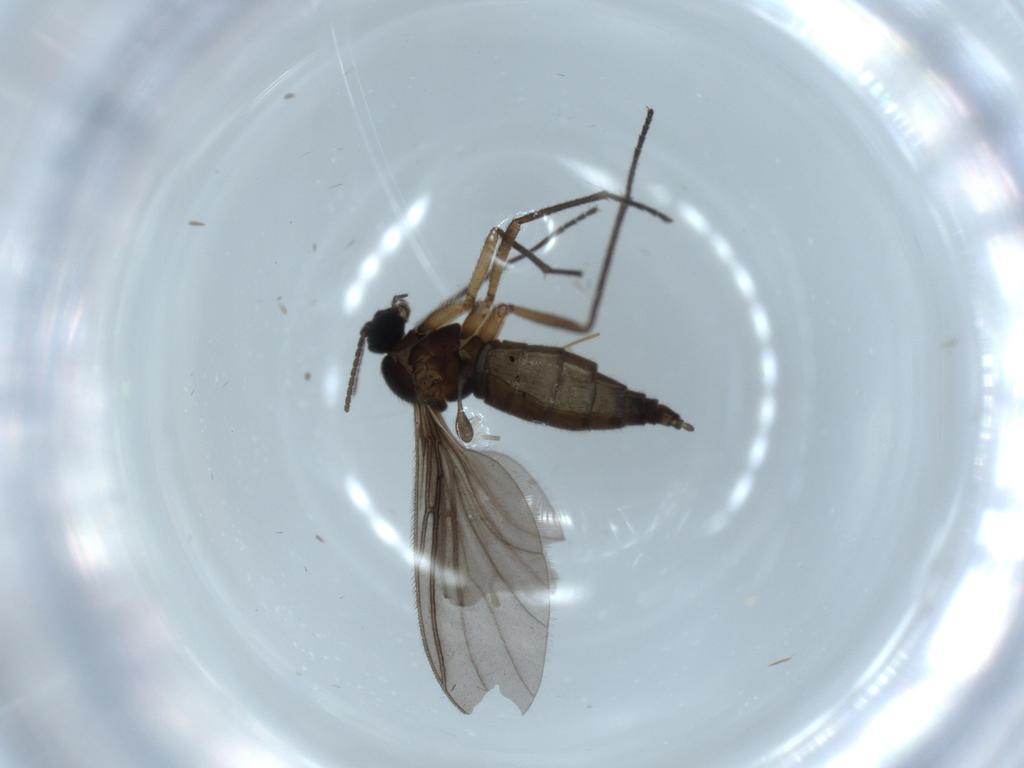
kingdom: Animalia
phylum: Arthropoda
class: Insecta
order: Diptera
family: Sciaridae
